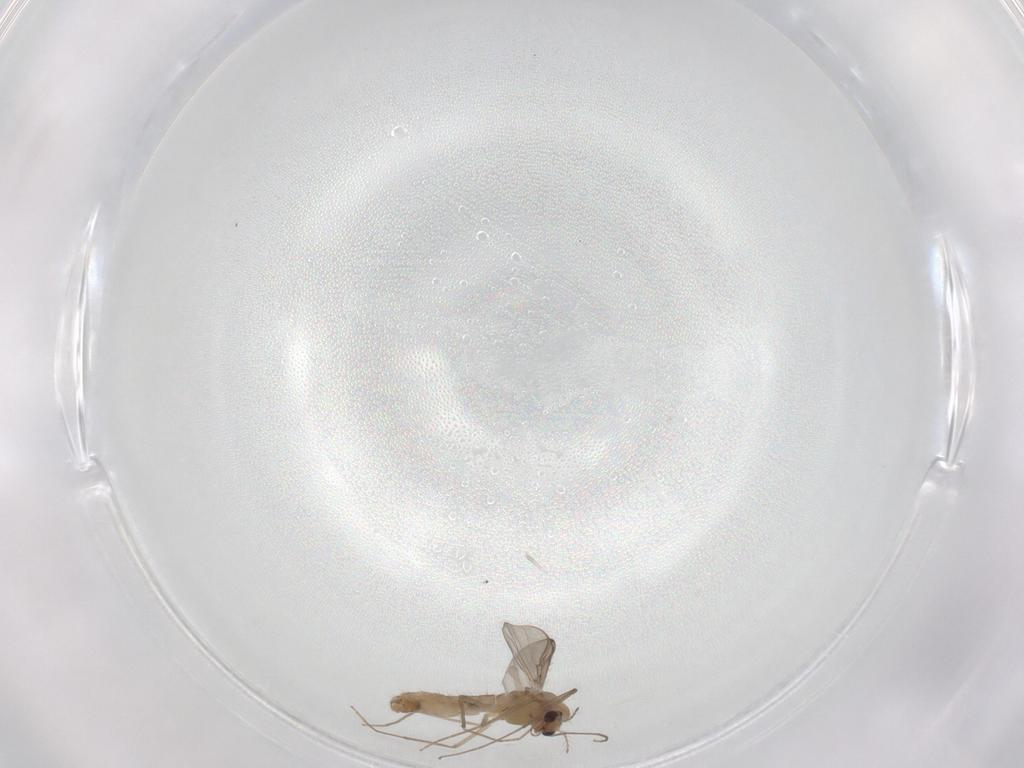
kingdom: Animalia
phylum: Arthropoda
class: Insecta
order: Diptera
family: Chironomidae
